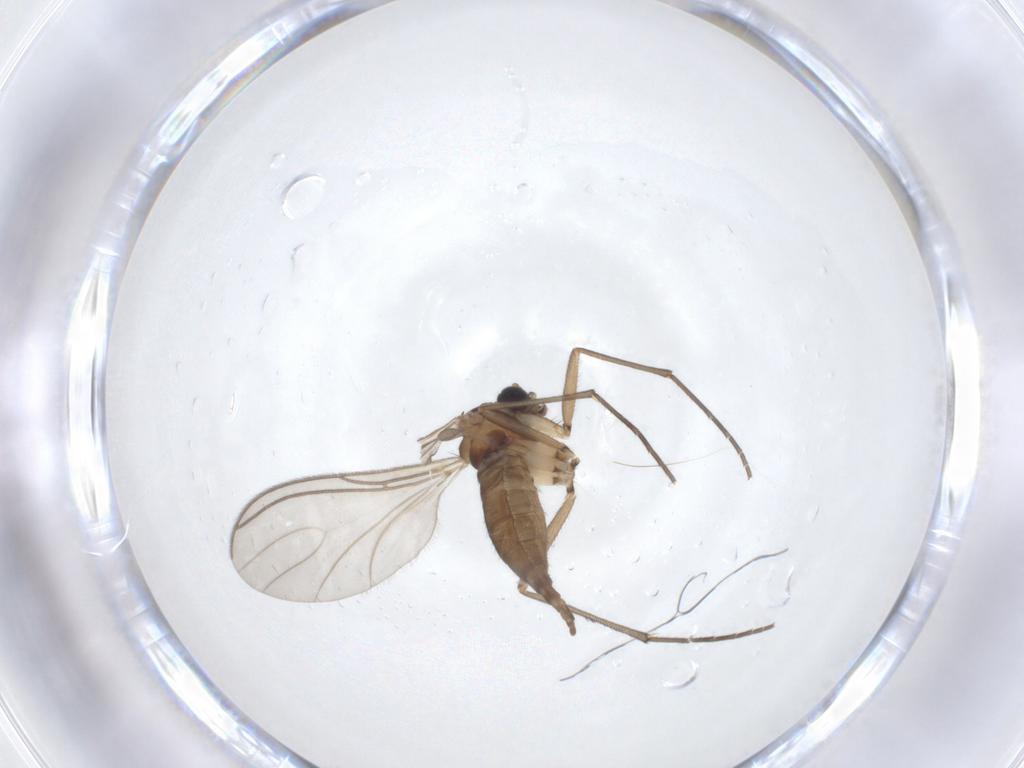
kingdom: Animalia
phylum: Arthropoda
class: Insecta
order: Diptera
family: Sciaridae
